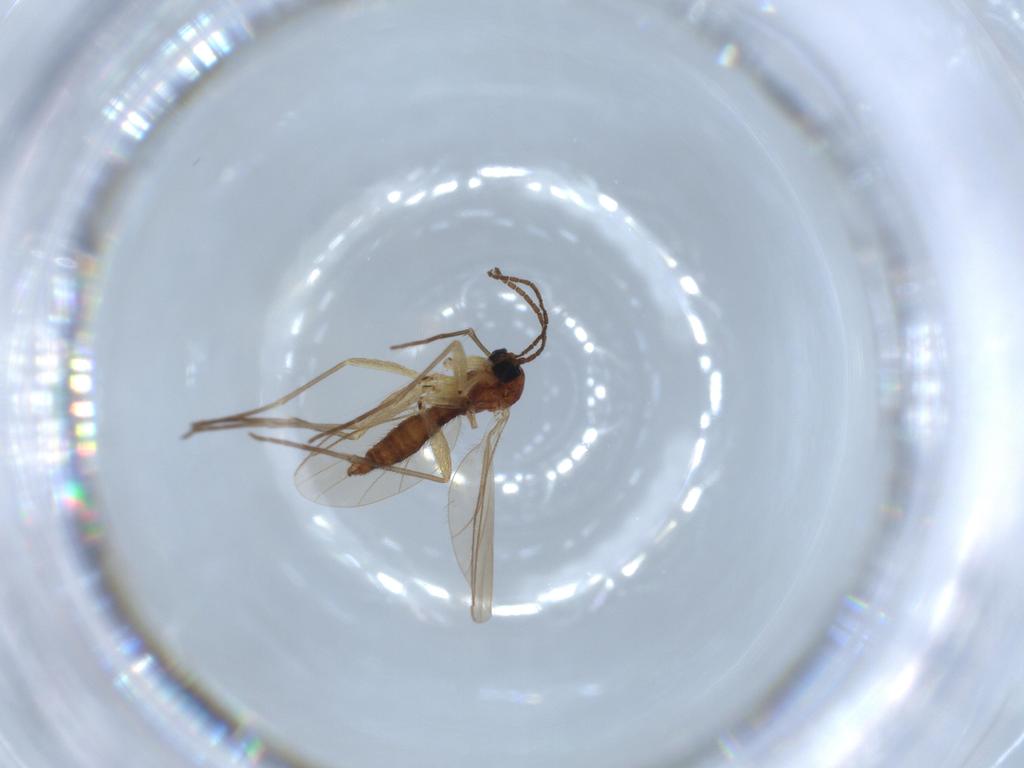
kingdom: Animalia
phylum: Arthropoda
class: Insecta
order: Diptera
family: Sciaridae
